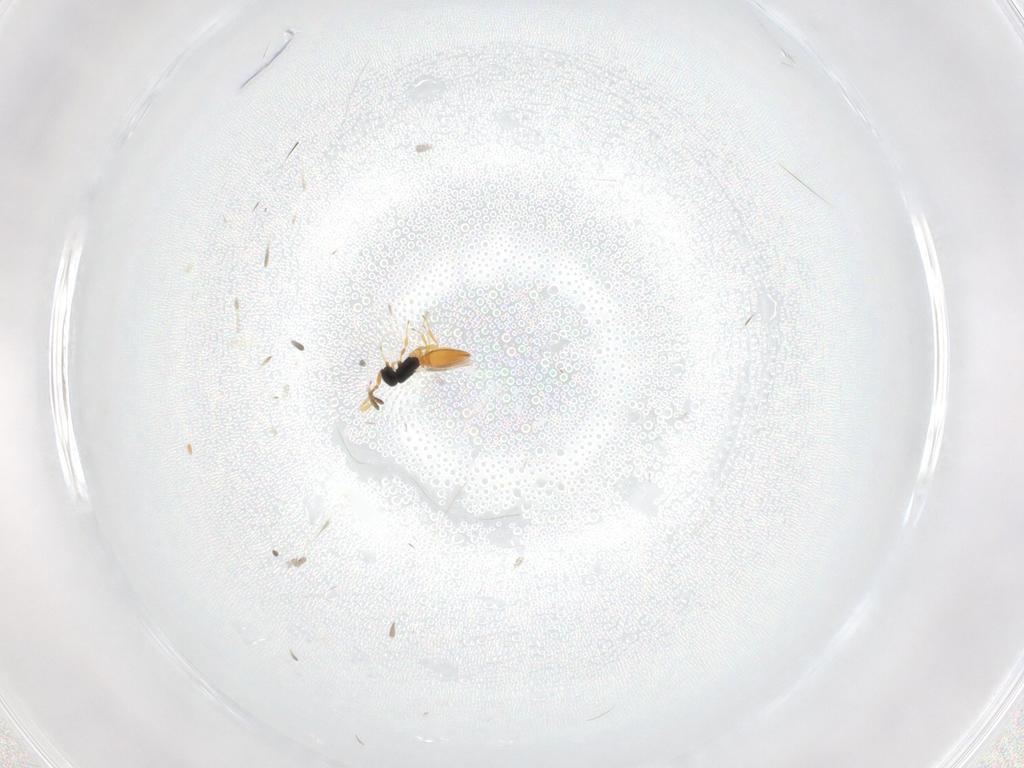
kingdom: Animalia
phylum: Arthropoda
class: Insecta
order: Hymenoptera
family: Scelionidae
